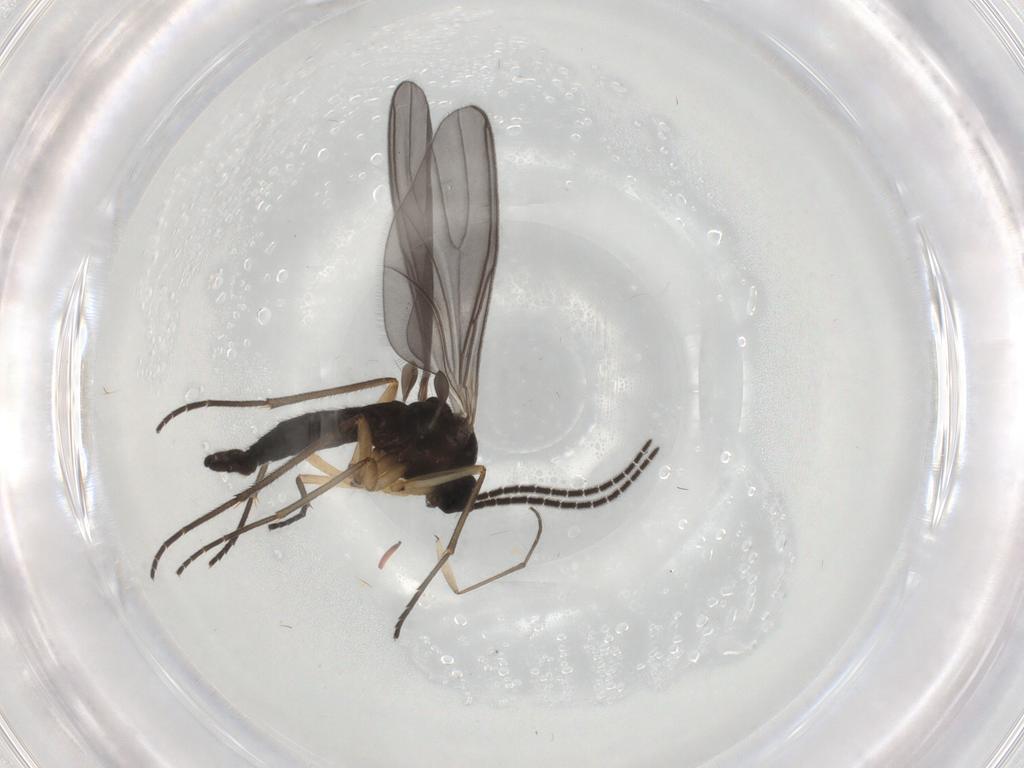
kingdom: Animalia
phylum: Arthropoda
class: Insecta
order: Diptera
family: Sciaridae
